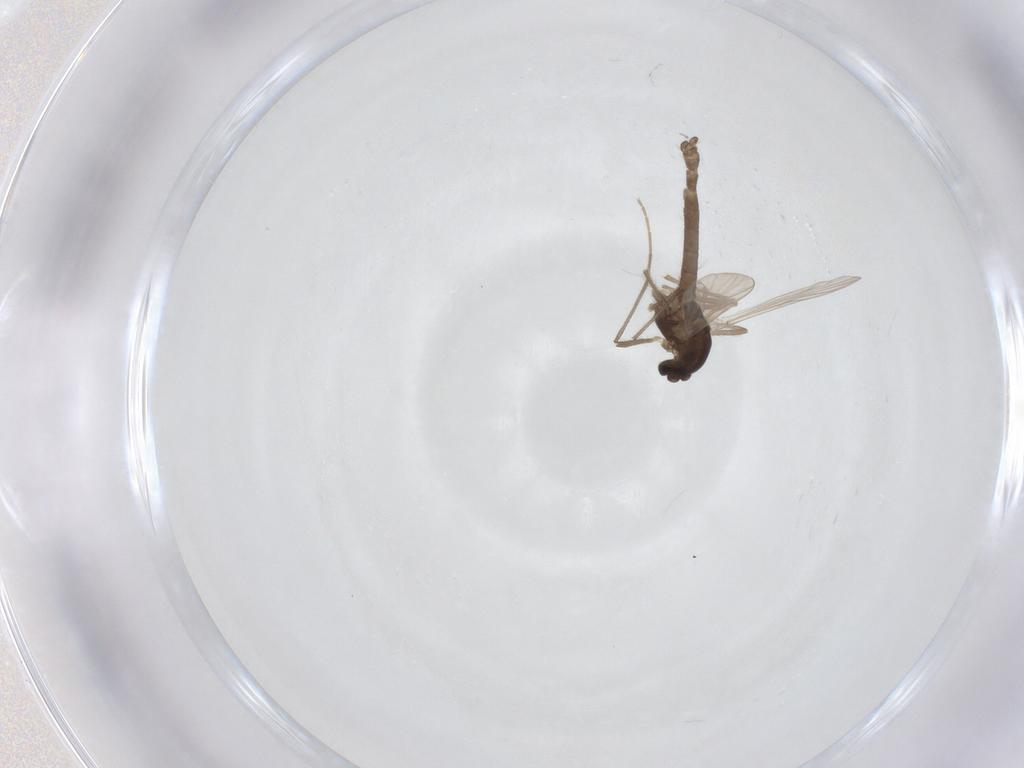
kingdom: Animalia
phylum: Arthropoda
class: Insecta
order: Diptera
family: Chironomidae
